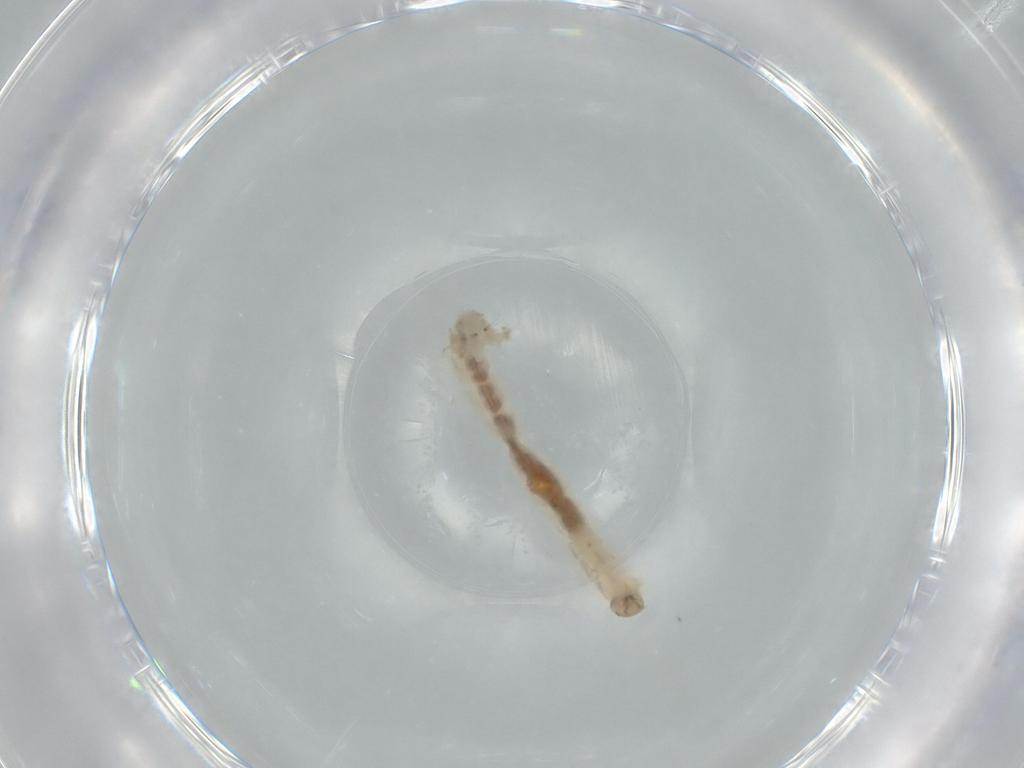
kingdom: Animalia
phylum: Arthropoda
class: Insecta
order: Diptera
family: Chironomidae
